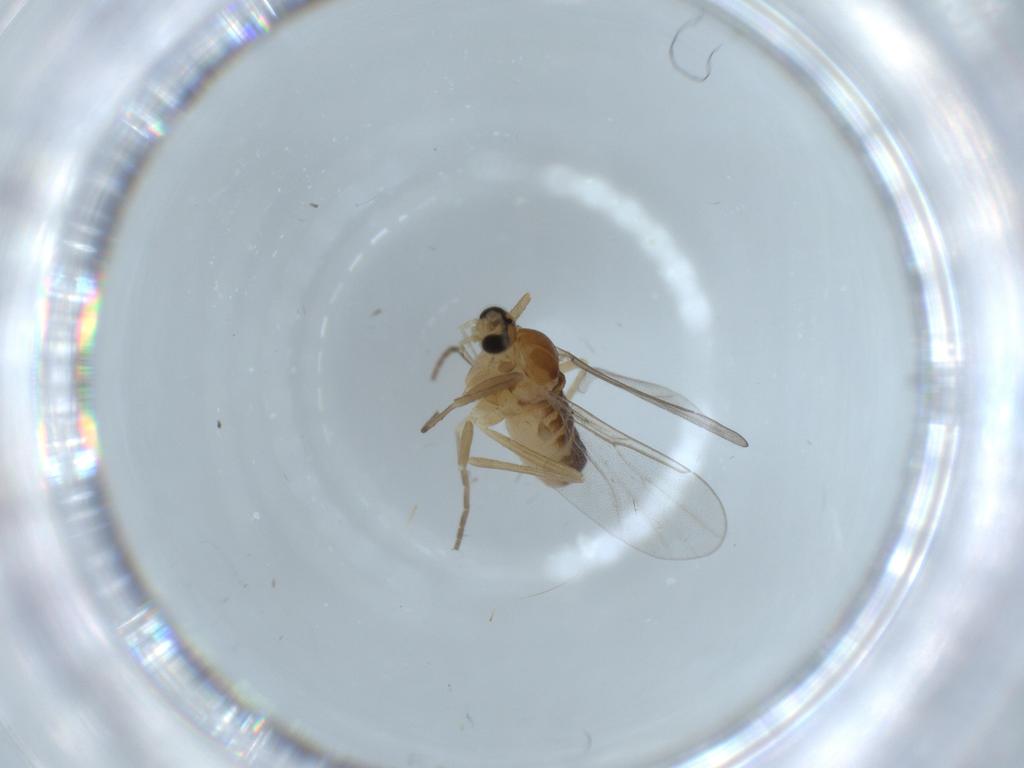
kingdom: Animalia
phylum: Arthropoda
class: Insecta
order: Diptera
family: Cecidomyiidae
